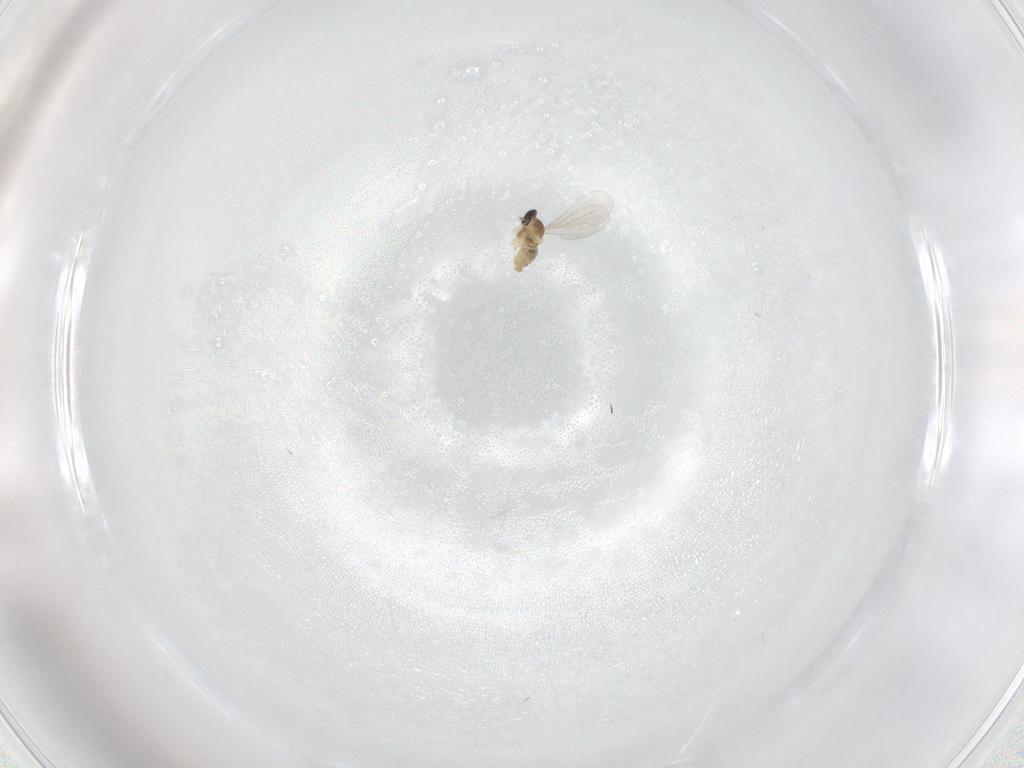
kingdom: Animalia
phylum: Arthropoda
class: Insecta
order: Diptera
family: Cecidomyiidae
